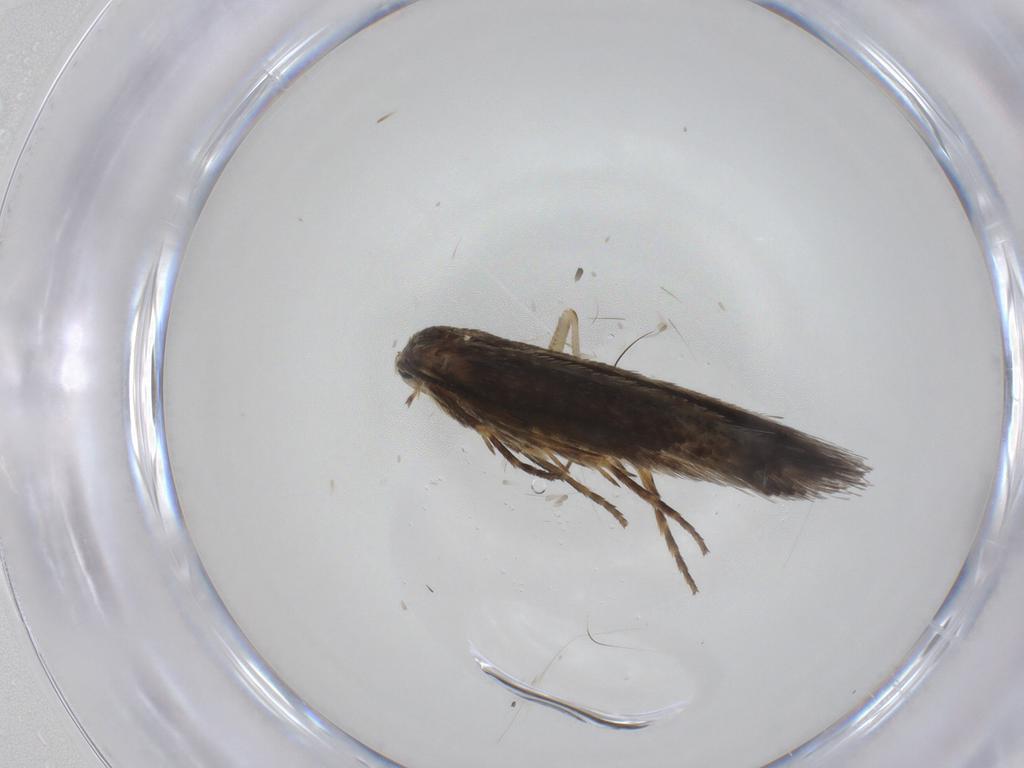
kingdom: Animalia
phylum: Arthropoda
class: Insecta
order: Lepidoptera
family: Nepticulidae
